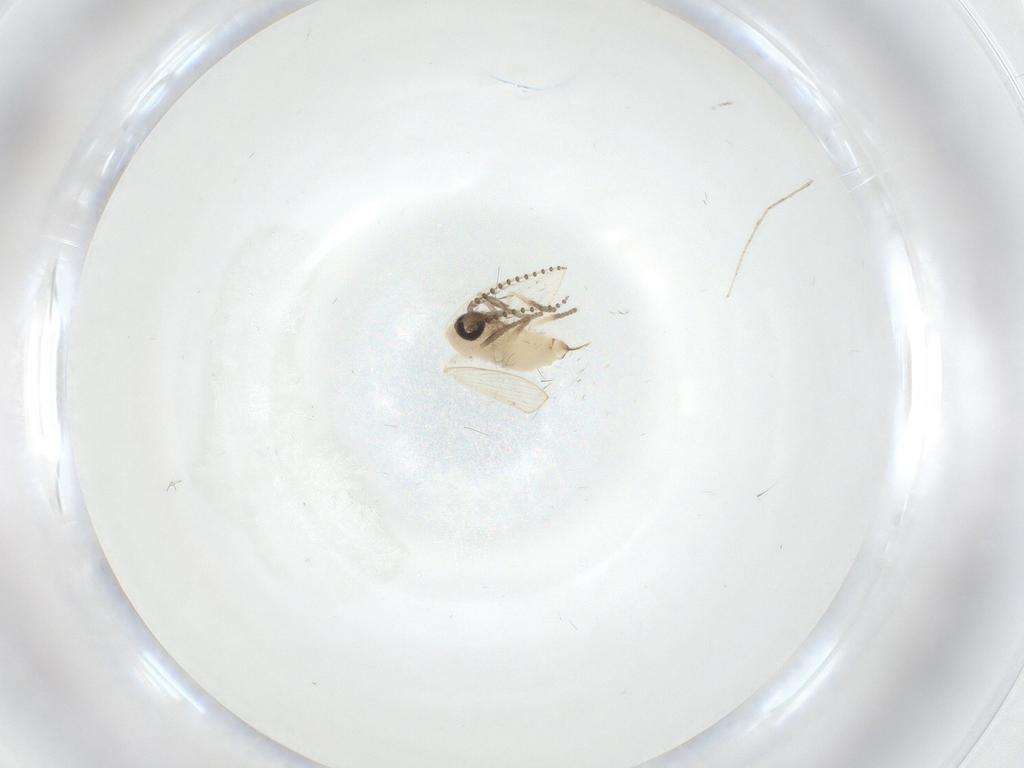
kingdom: Animalia
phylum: Arthropoda
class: Insecta
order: Diptera
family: Psychodidae
